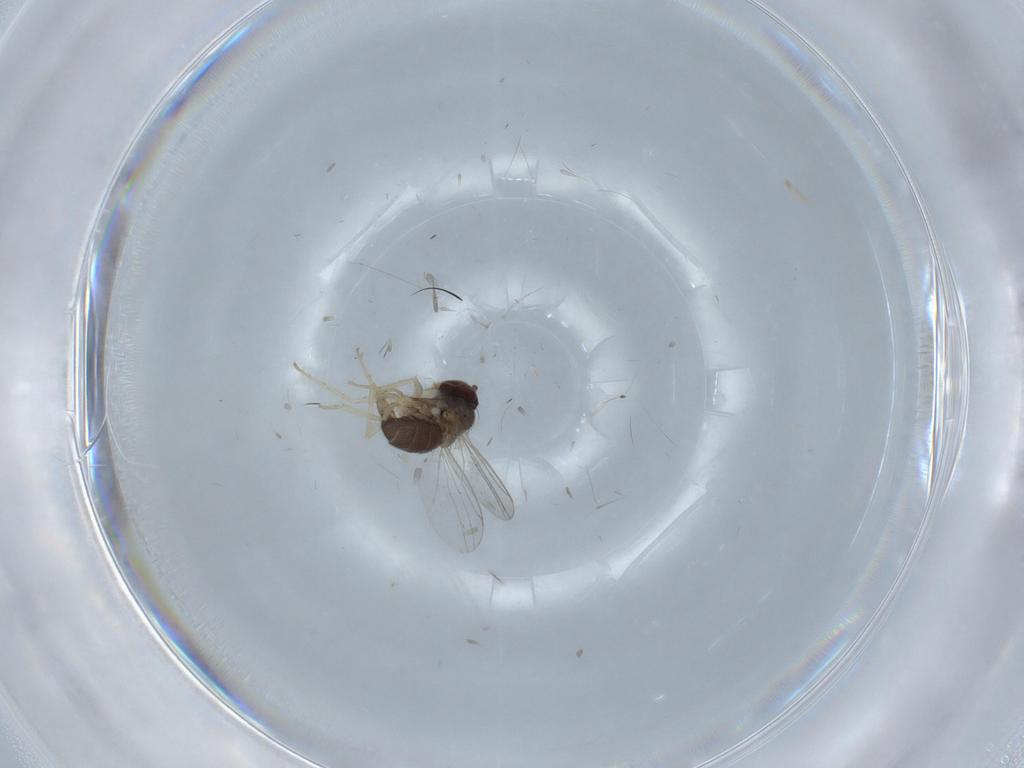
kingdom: Animalia
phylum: Arthropoda
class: Insecta
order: Diptera
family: Dolichopodidae
